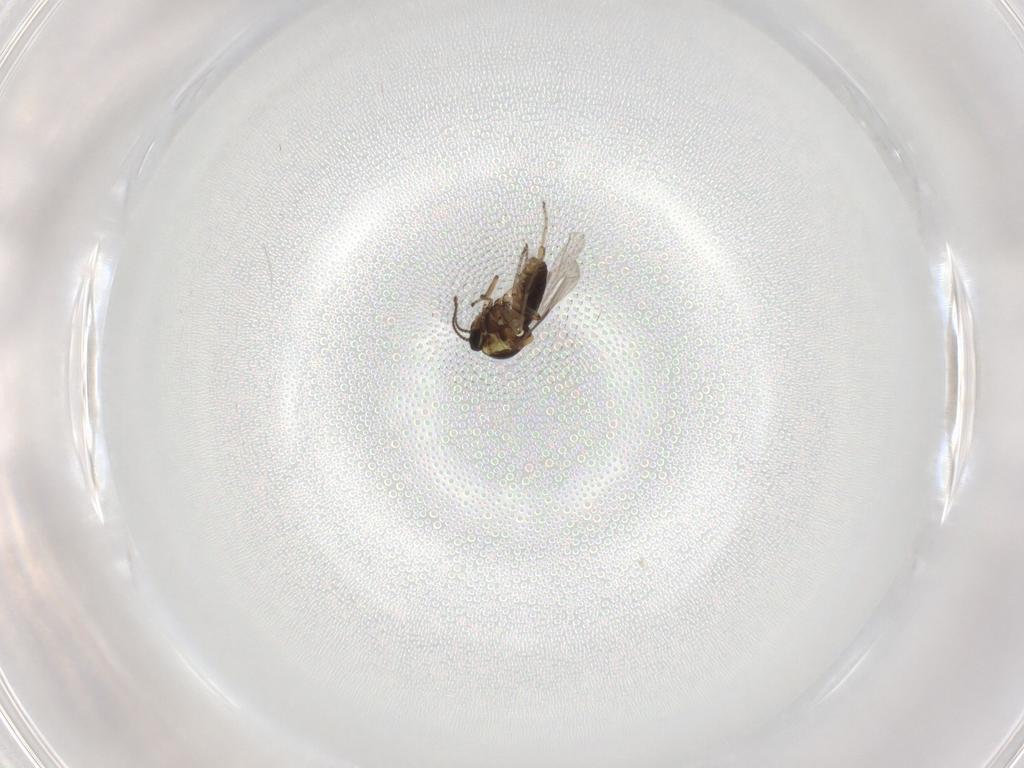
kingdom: Animalia
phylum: Arthropoda
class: Insecta
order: Diptera
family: Ceratopogonidae
